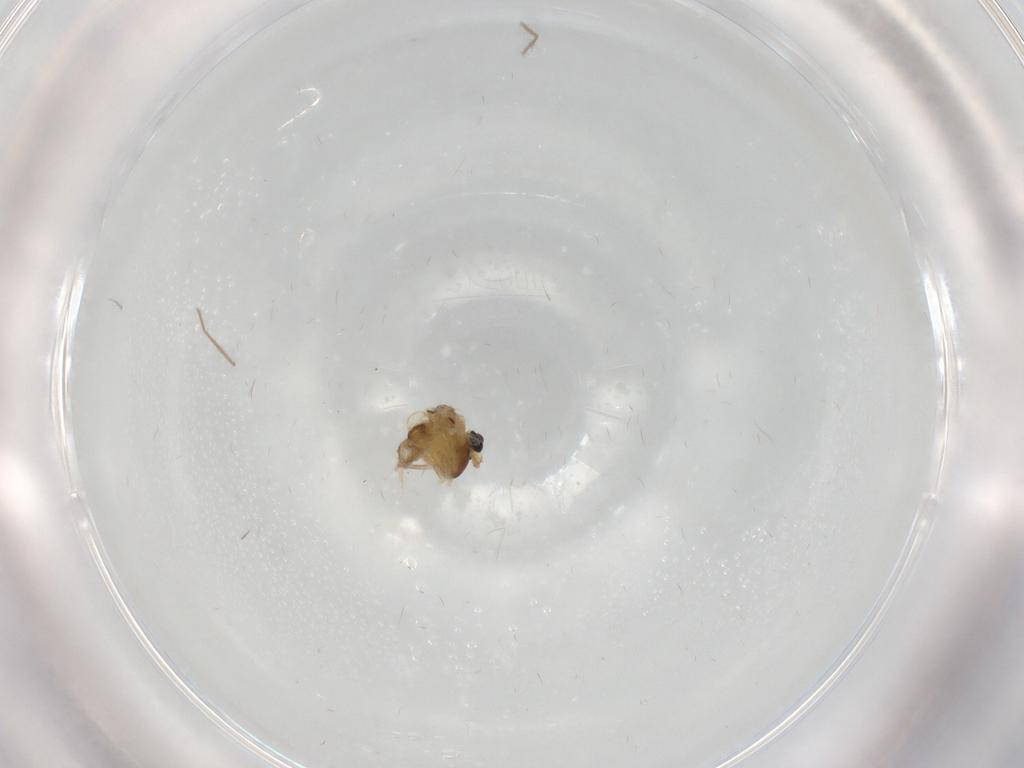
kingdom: Animalia
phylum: Arthropoda
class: Insecta
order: Diptera
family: Chironomidae
